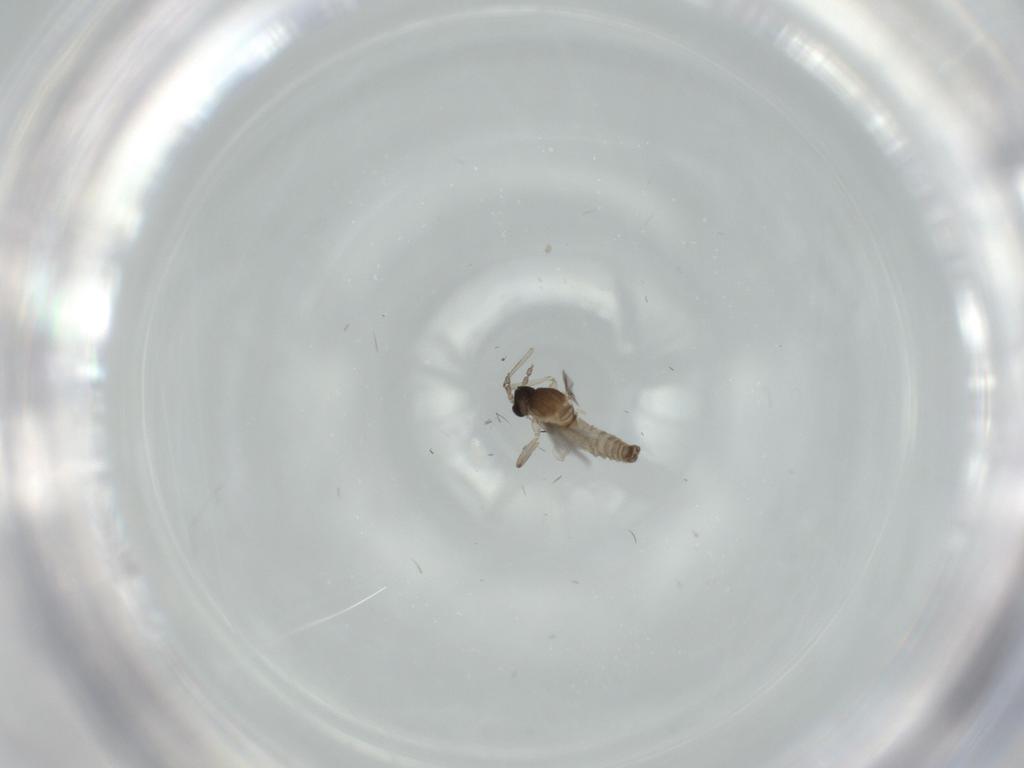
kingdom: Animalia
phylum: Arthropoda
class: Insecta
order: Diptera
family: Cecidomyiidae
